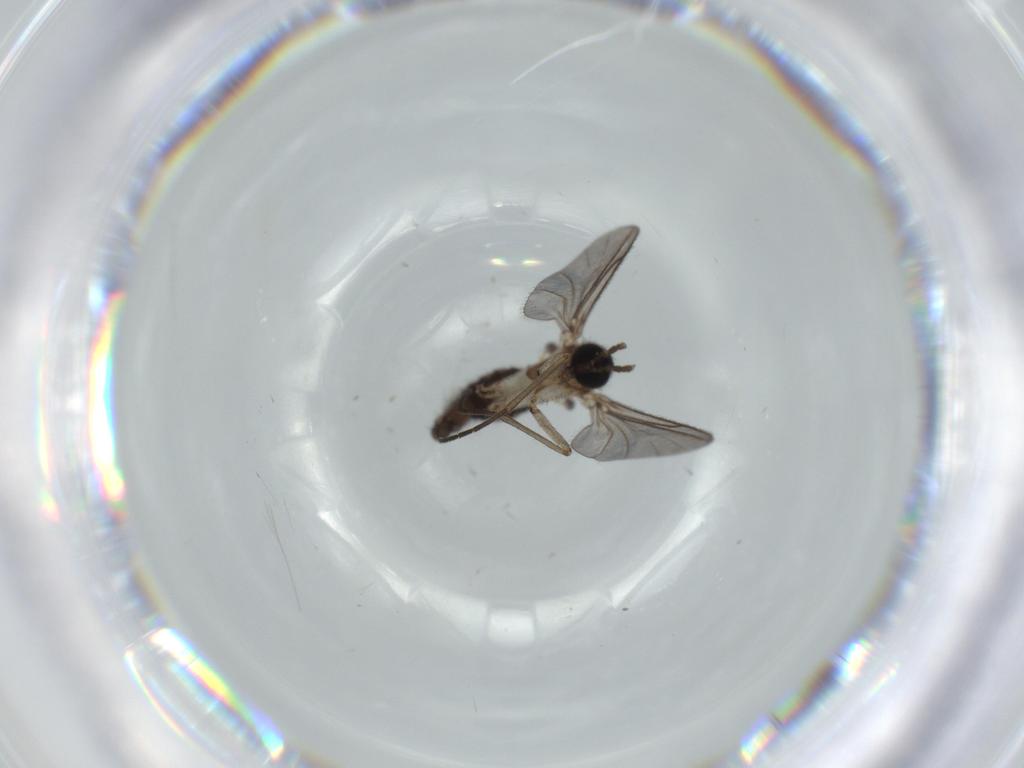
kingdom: Animalia
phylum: Arthropoda
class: Insecta
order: Diptera
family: Sciaridae
